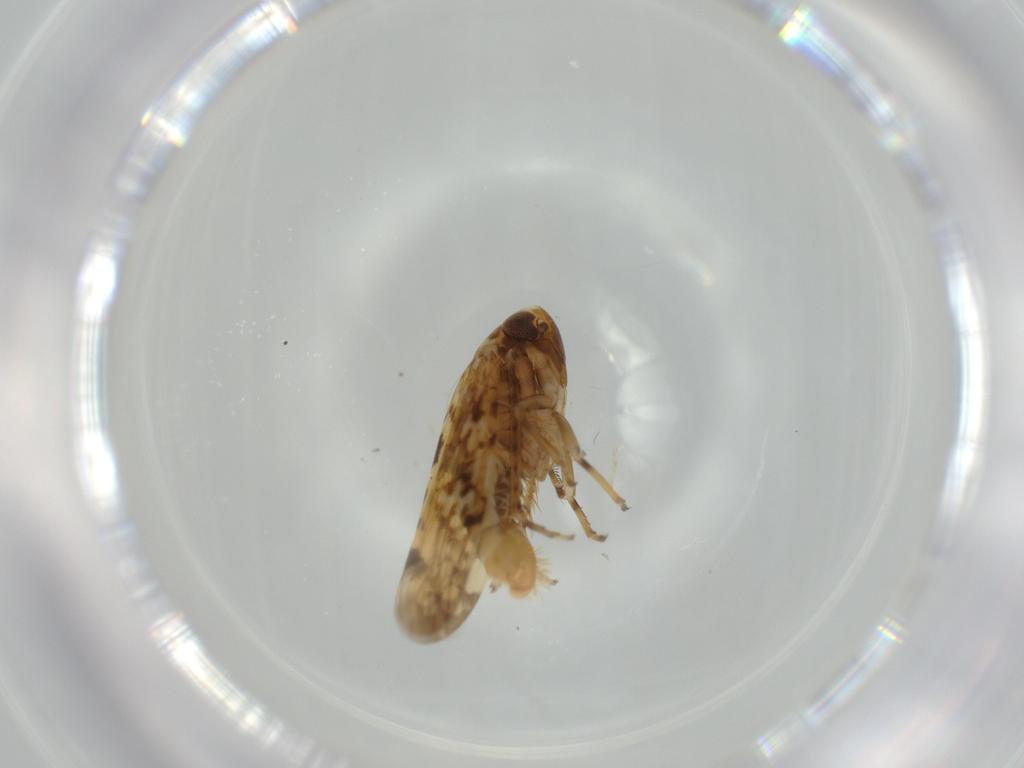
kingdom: Animalia
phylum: Arthropoda
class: Insecta
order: Hemiptera
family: Cicadellidae
